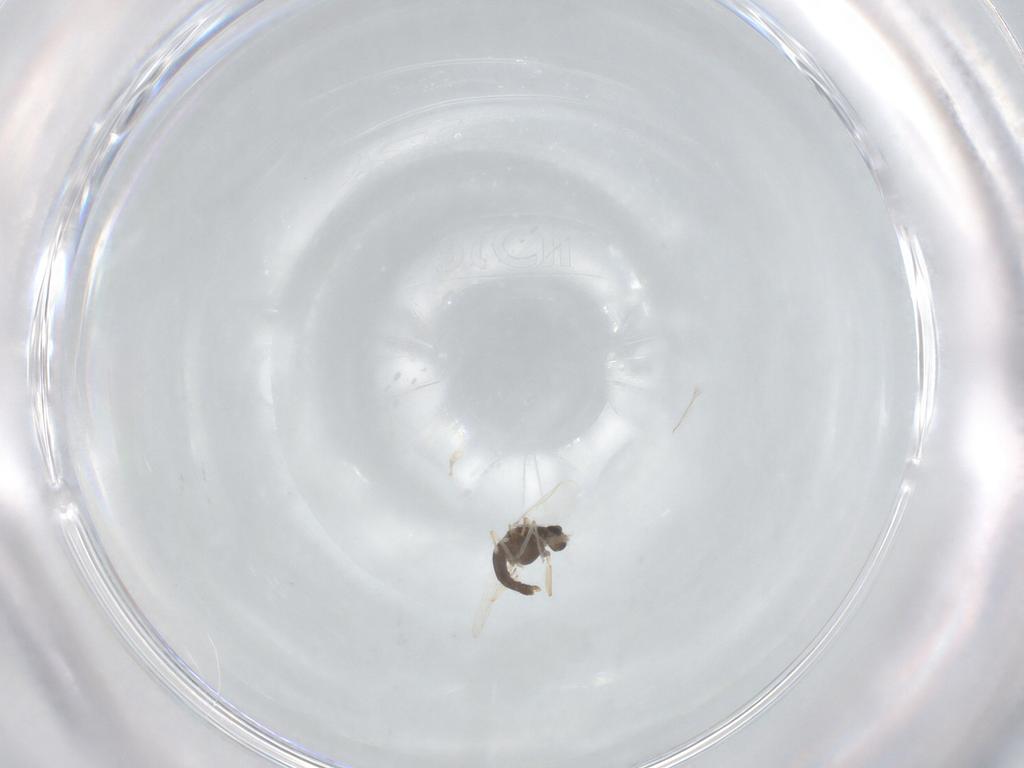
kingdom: Animalia
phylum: Arthropoda
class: Insecta
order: Diptera
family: Chironomidae
